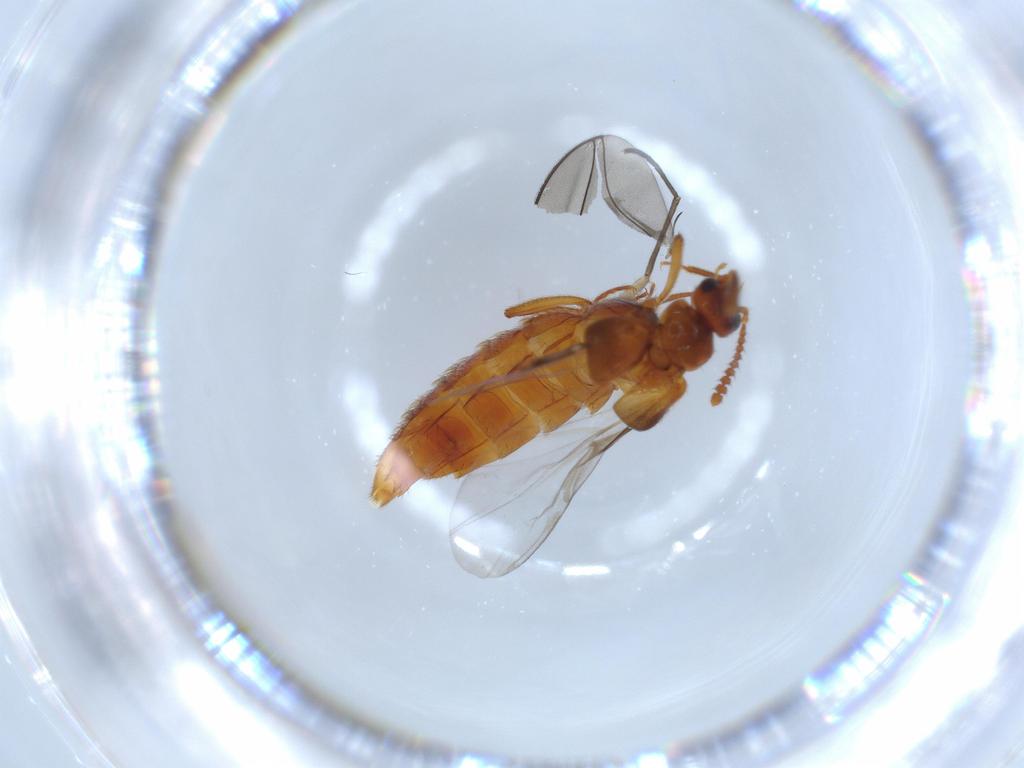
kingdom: Animalia
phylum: Arthropoda
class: Insecta
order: Coleoptera
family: Staphylinidae
